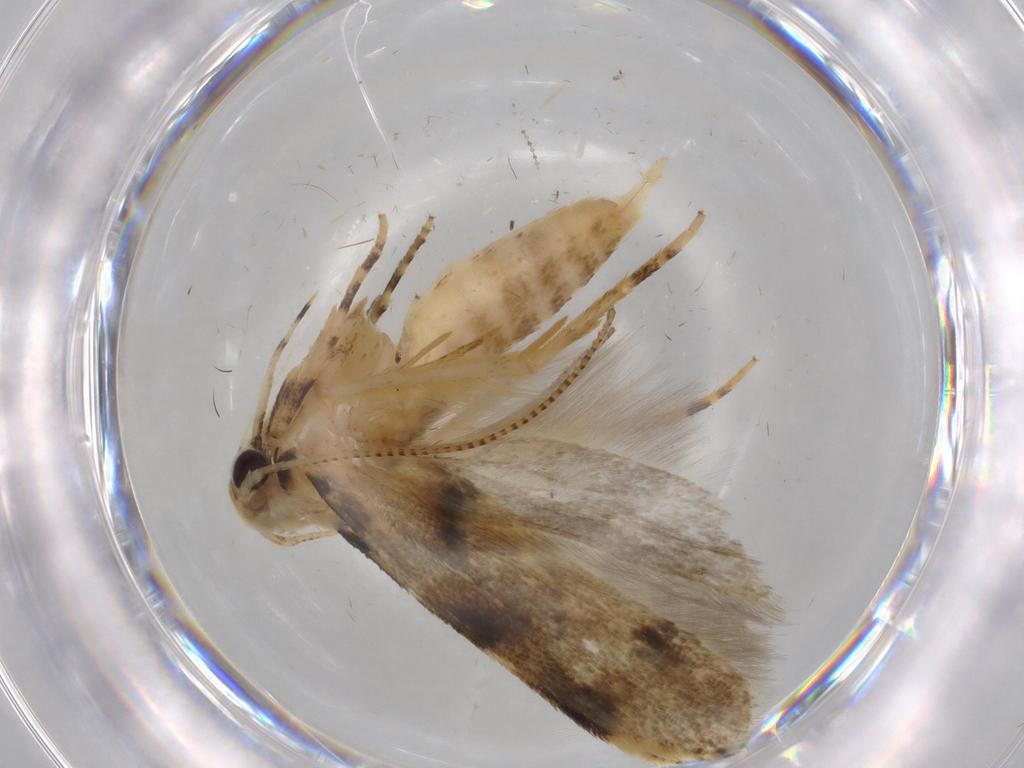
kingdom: Animalia
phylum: Arthropoda
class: Insecta
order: Lepidoptera
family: Gelechiidae
